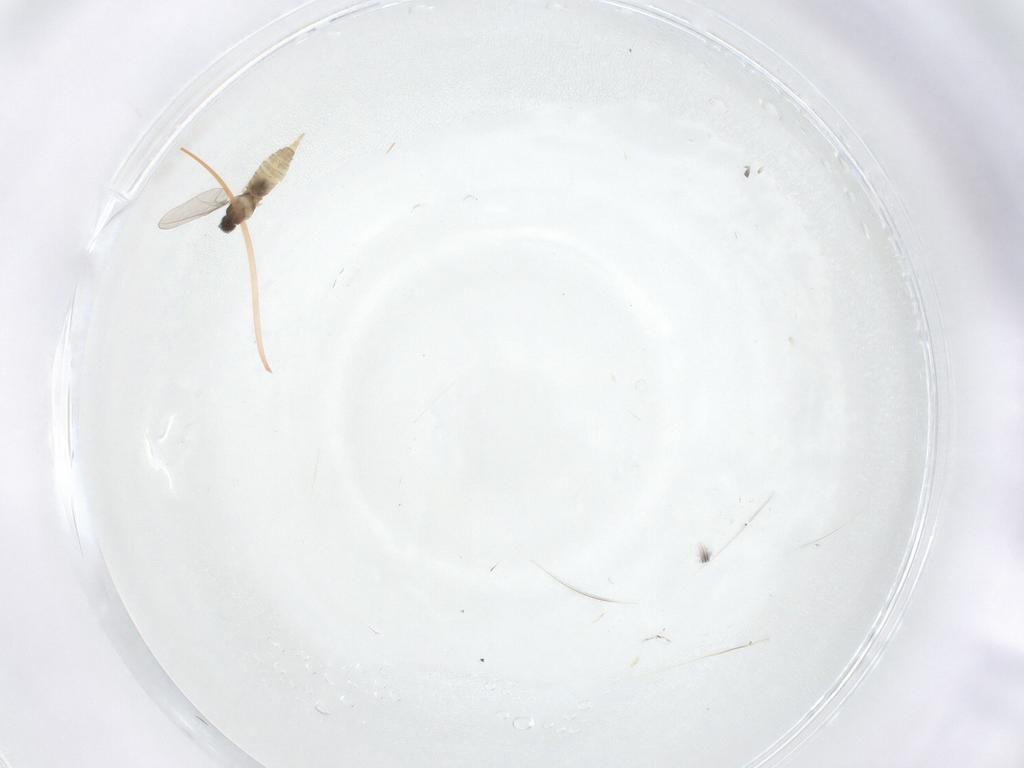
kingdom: Animalia
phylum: Arthropoda
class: Insecta
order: Diptera
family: Cecidomyiidae
